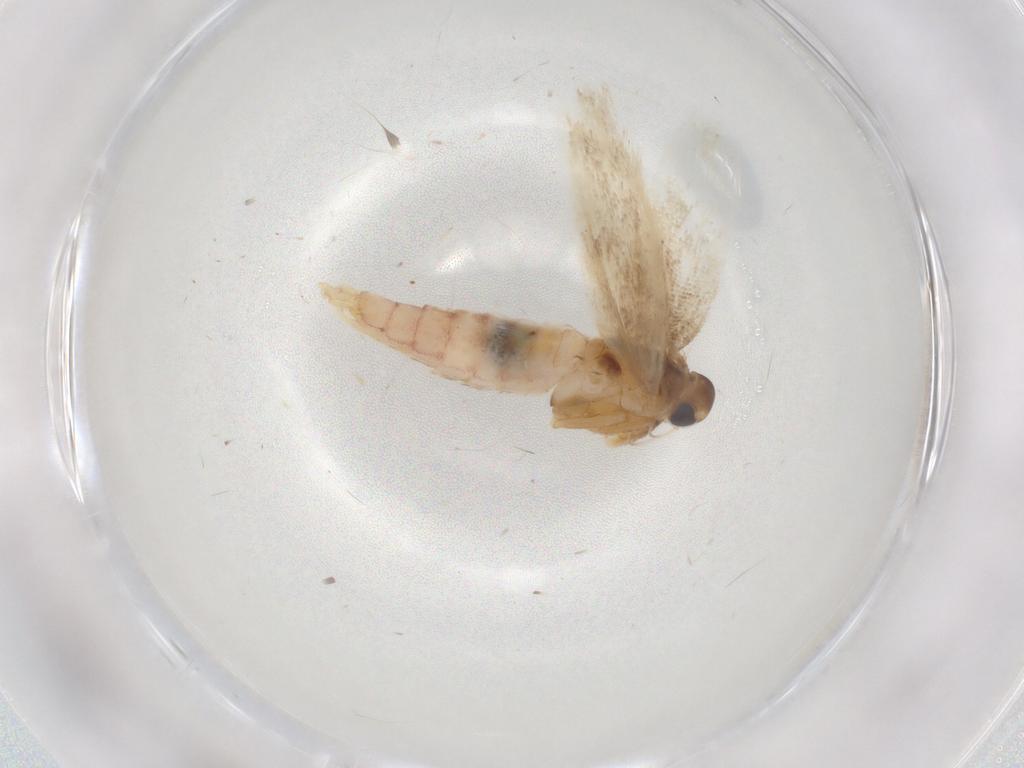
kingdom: Animalia
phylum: Arthropoda
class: Insecta
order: Lepidoptera
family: Gelechiidae
